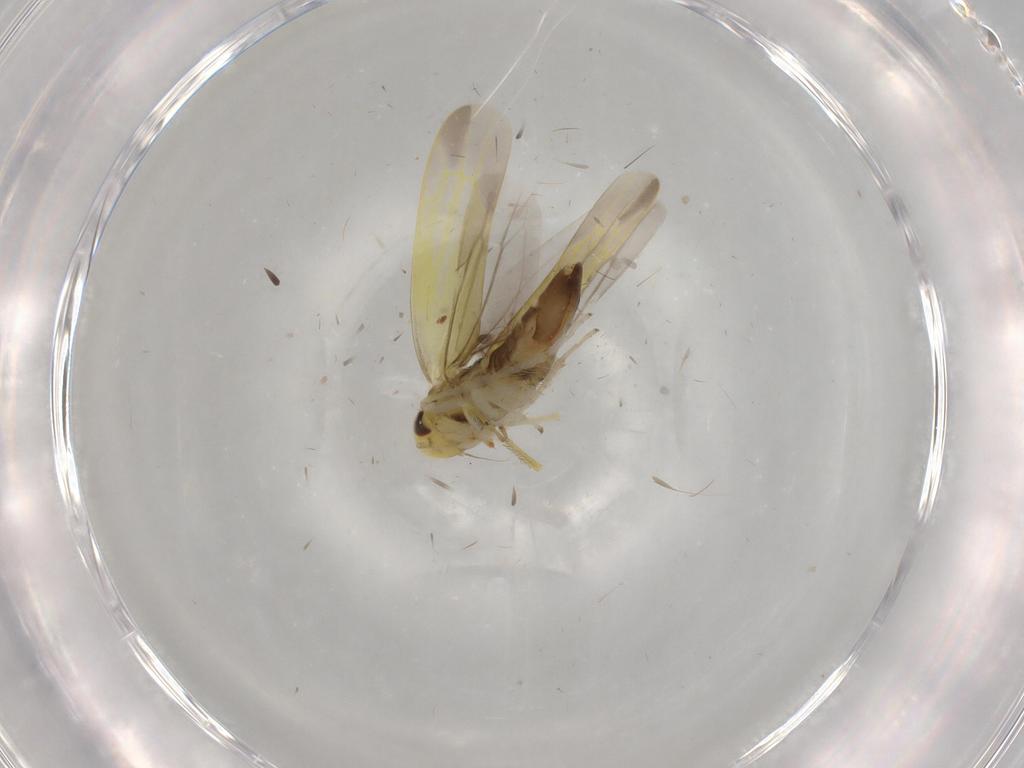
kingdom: Animalia
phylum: Arthropoda
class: Insecta
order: Hemiptera
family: Cicadellidae
